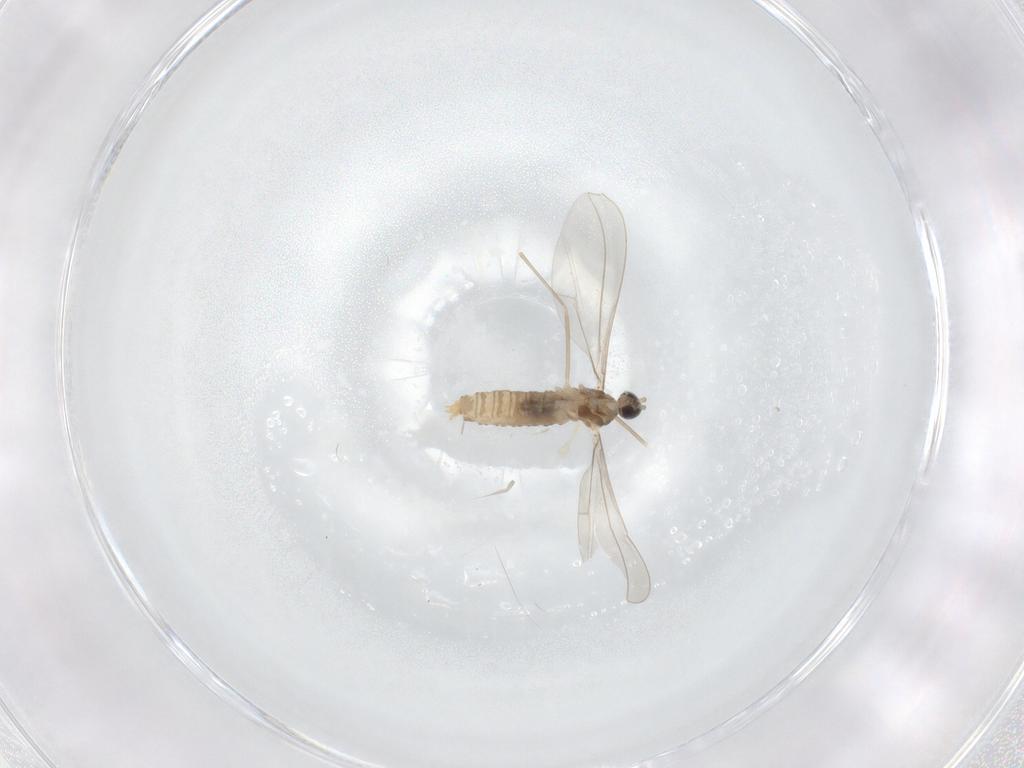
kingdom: Animalia
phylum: Arthropoda
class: Insecta
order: Diptera
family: Cecidomyiidae
